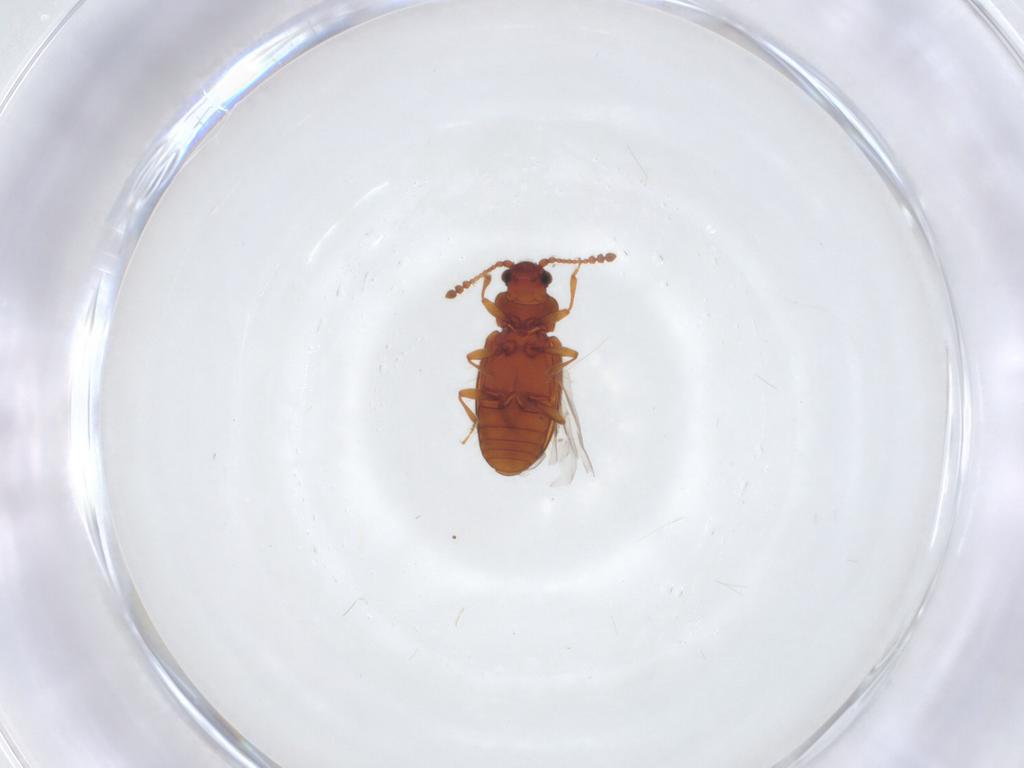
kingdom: Animalia
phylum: Arthropoda
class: Insecta
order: Coleoptera
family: Cryptophagidae
